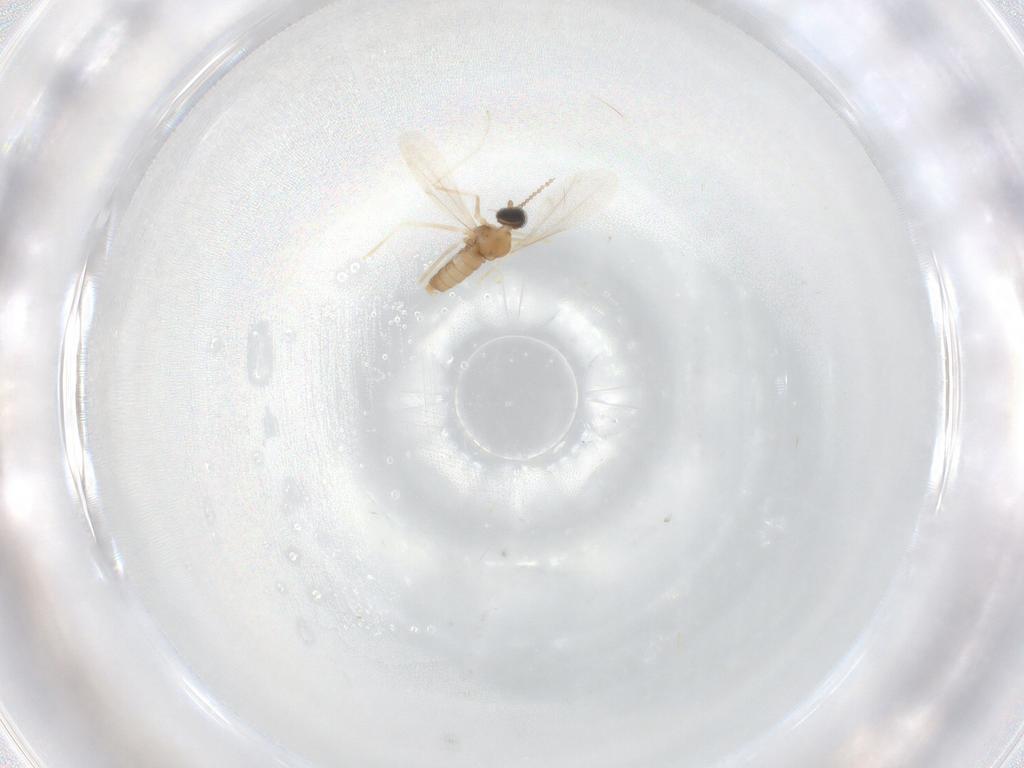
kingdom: Animalia
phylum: Arthropoda
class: Insecta
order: Diptera
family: Cecidomyiidae
